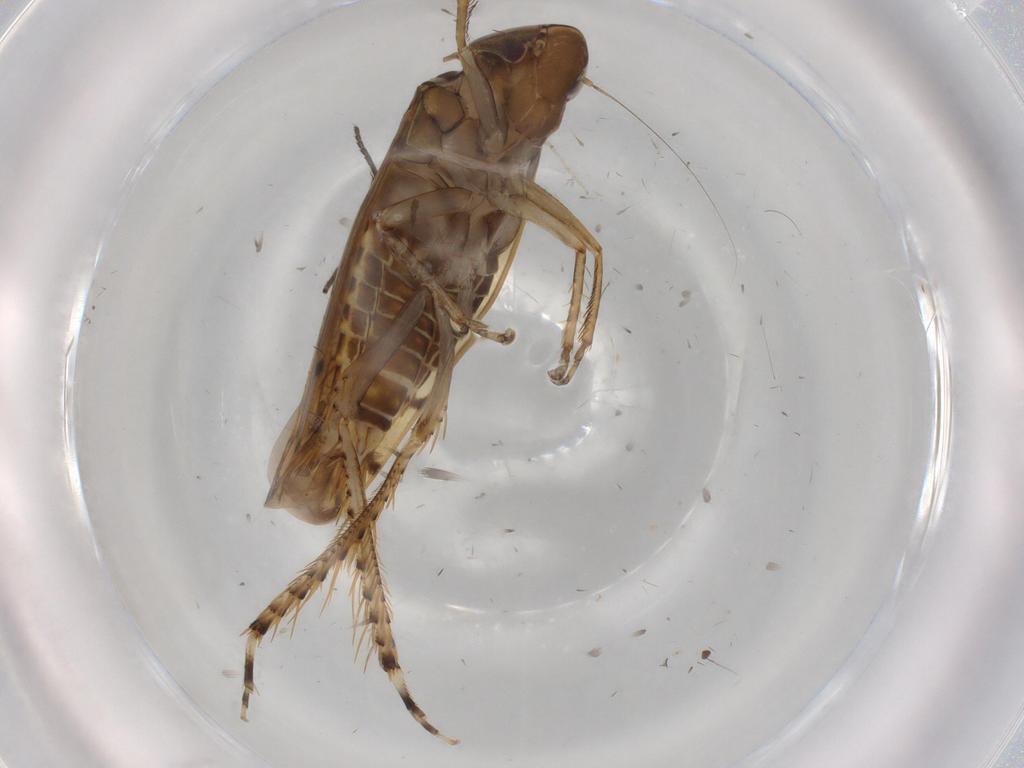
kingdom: Animalia
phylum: Arthropoda
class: Insecta
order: Hemiptera
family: Cicadellidae
